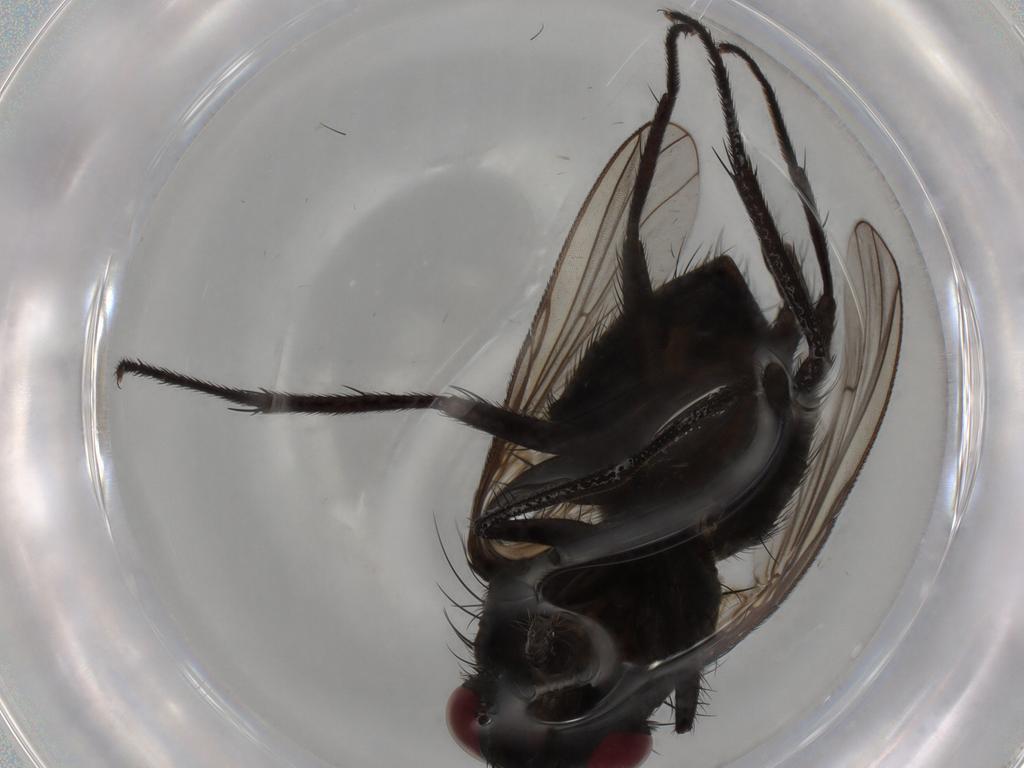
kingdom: Animalia
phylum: Arthropoda
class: Insecta
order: Diptera
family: Muscidae
